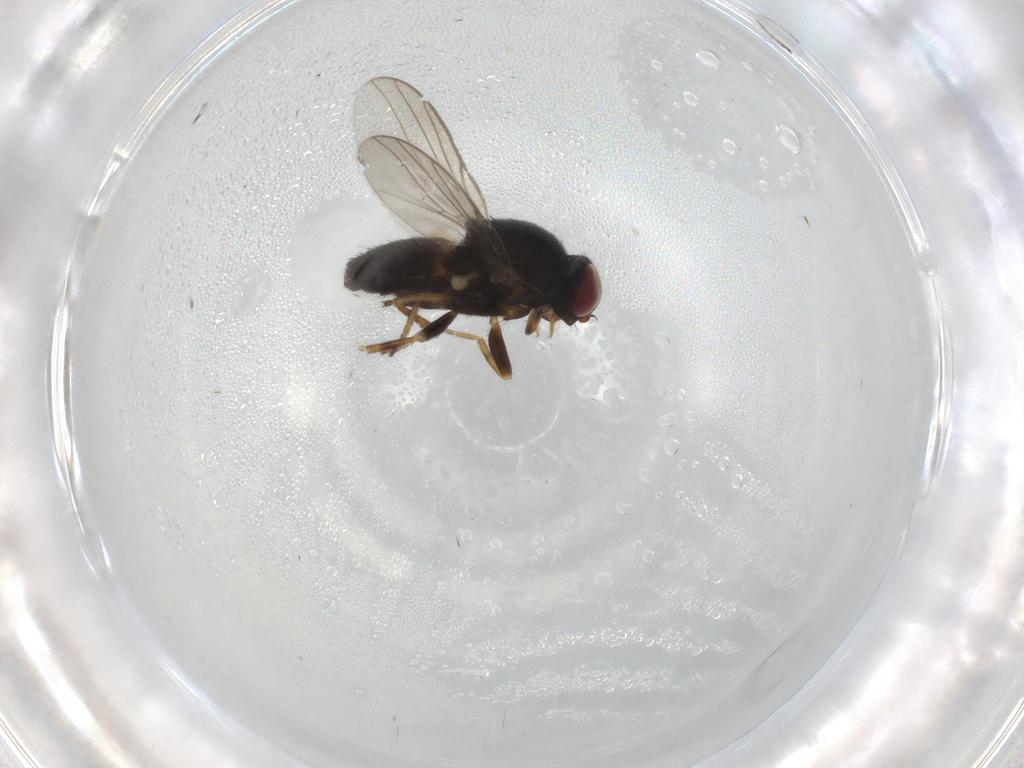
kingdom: Animalia
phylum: Arthropoda
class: Insecta
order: Diptera
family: Chloropidae
